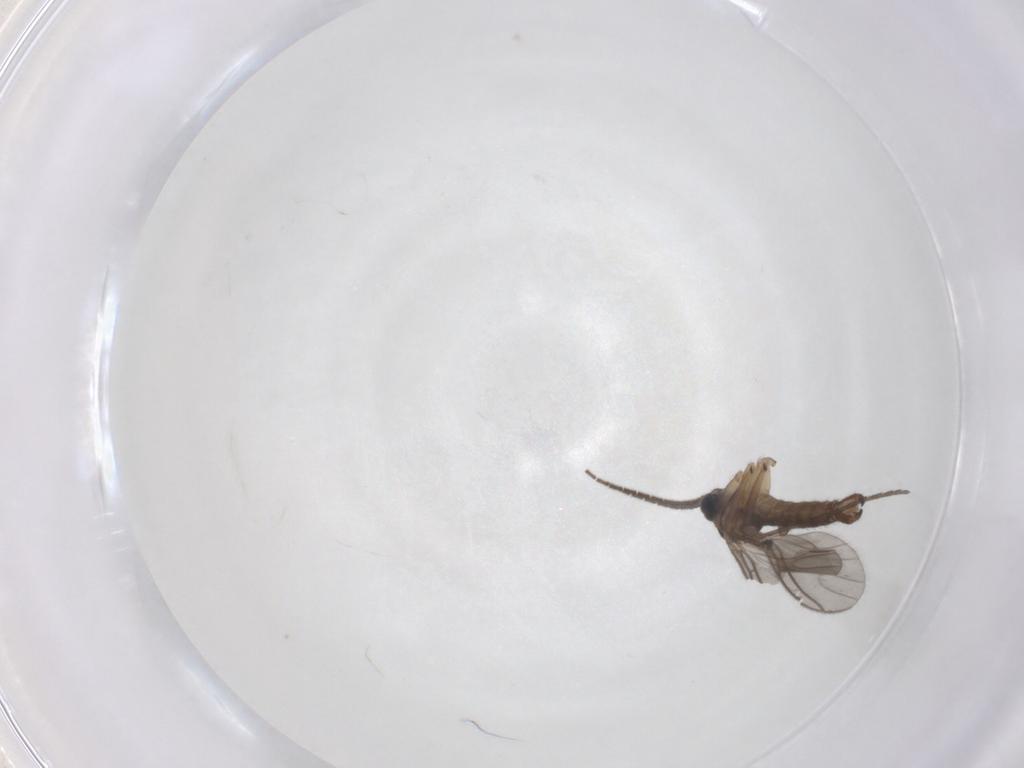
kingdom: Animalia
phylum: Arthropoda
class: Insecta
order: Diptera
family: Sciaridae
